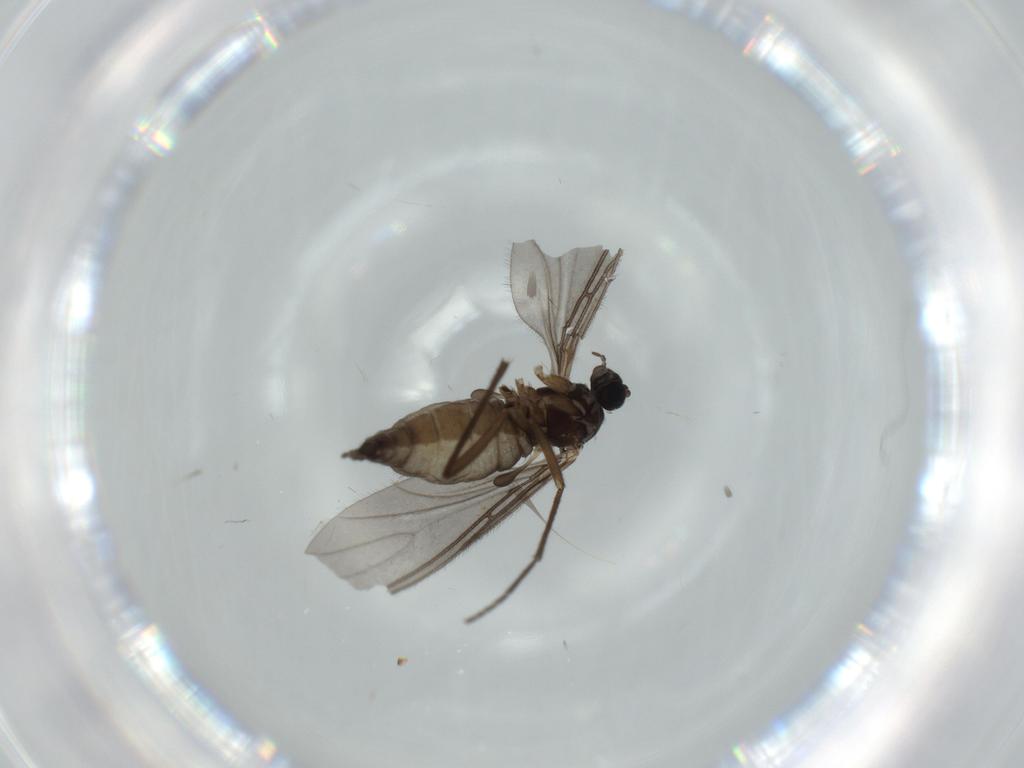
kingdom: Animalia
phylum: Arthropoda
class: Insecta
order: Diptera
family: Sciaridae
